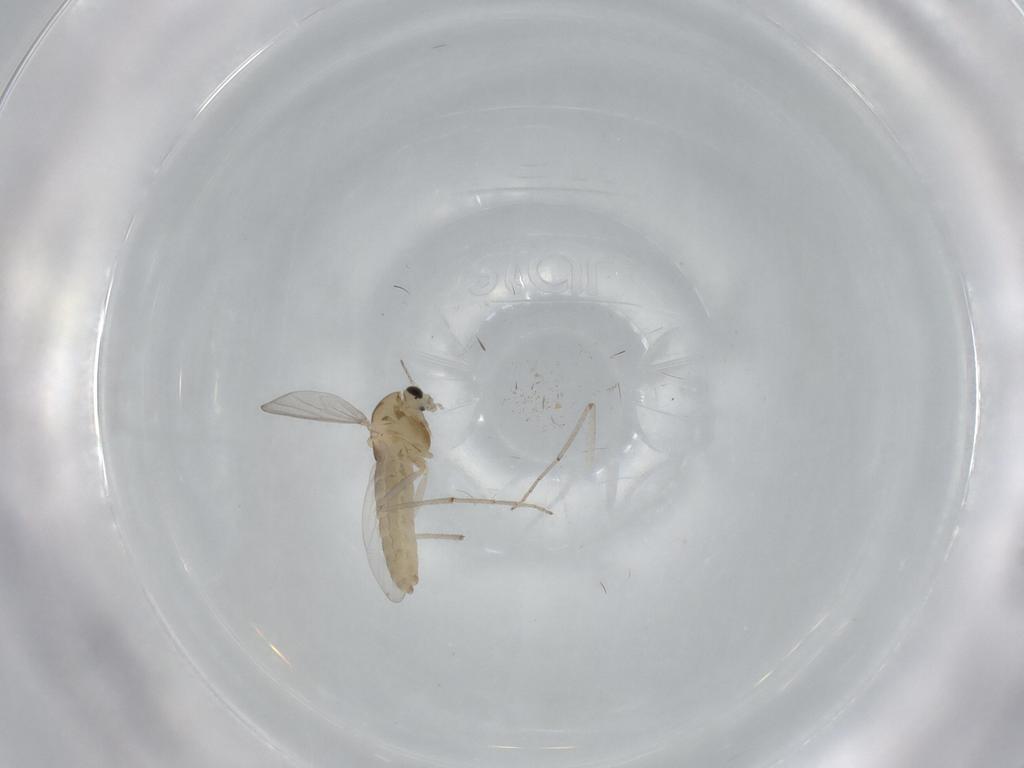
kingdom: Animalia
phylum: Arthropoda
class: Insecta
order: Diptera
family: Chironomidae
